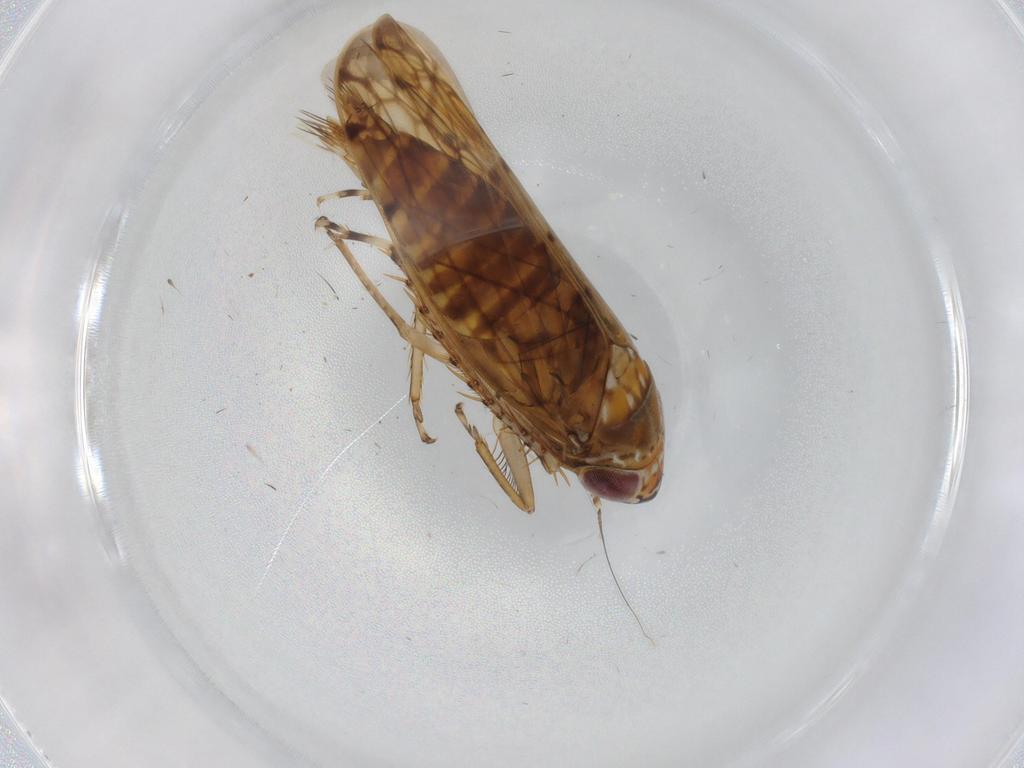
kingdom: Animalia
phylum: Arthropoda
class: Insecta
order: Hemiptera
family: Cicadellidae
